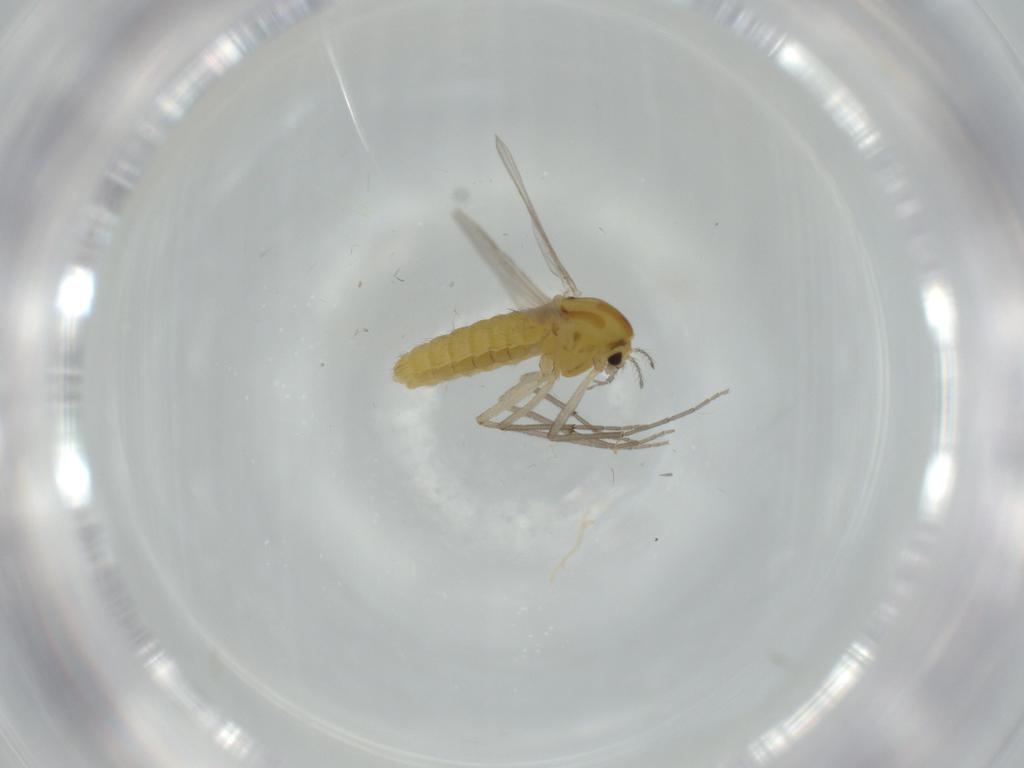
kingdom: Animalia
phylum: Arthropoda
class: Insecta
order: Diptera
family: Chironomidae
